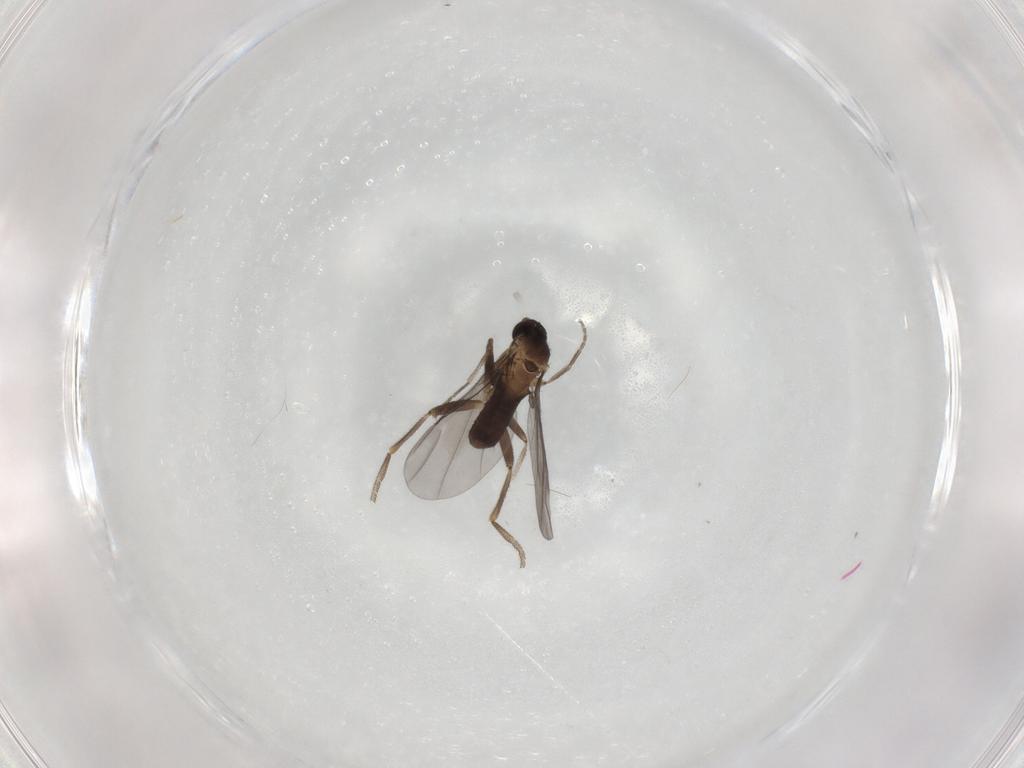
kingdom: Animalia
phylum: Arthropoda
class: Insecta
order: Diptera
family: Phoridae
